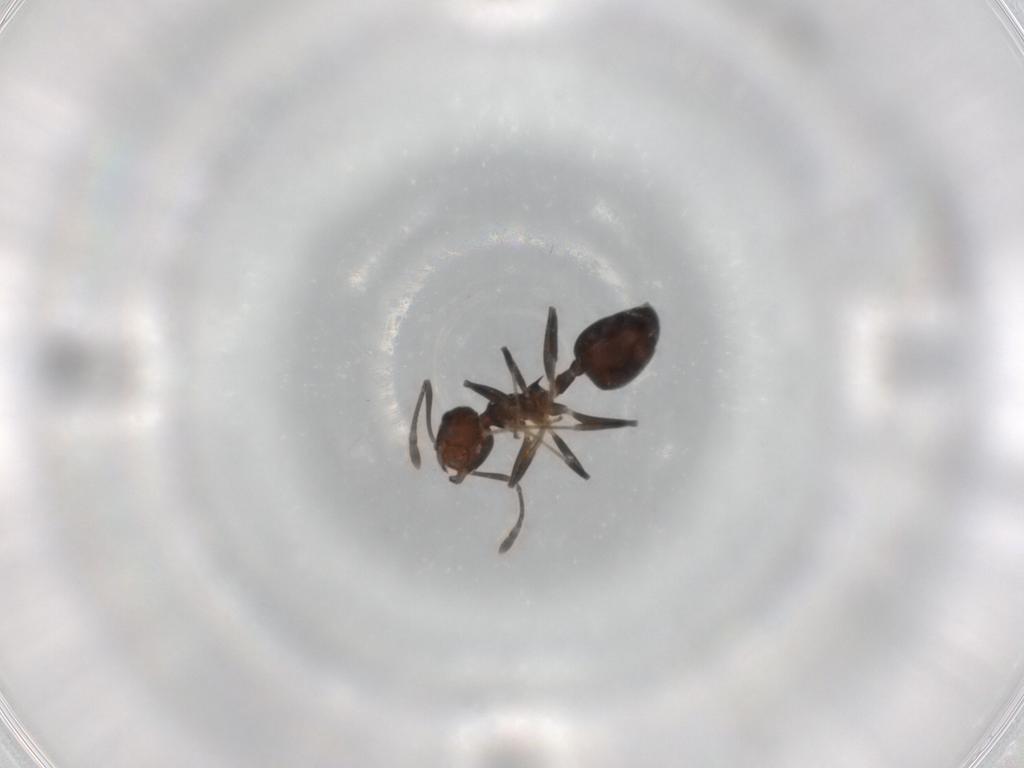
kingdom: Animalia
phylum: Arthropoda
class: Insecta
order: Hymenoptera
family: Formicidae
